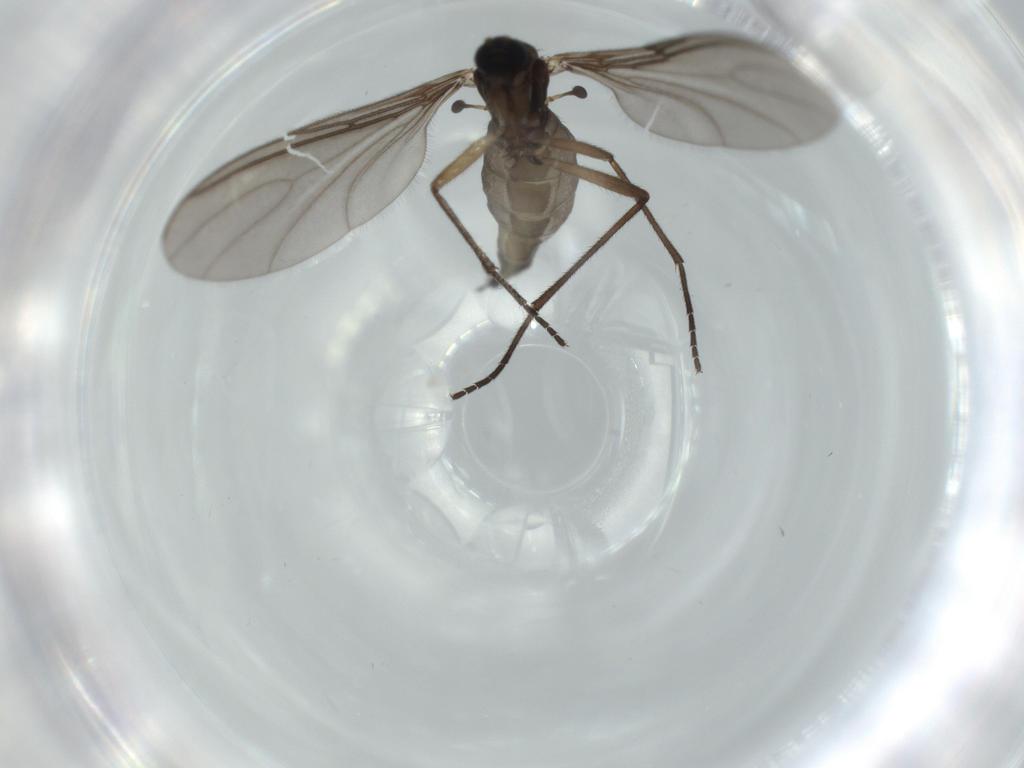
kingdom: Animalia
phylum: Arthropoda
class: Insecta
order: Diptera
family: Sciaridae
